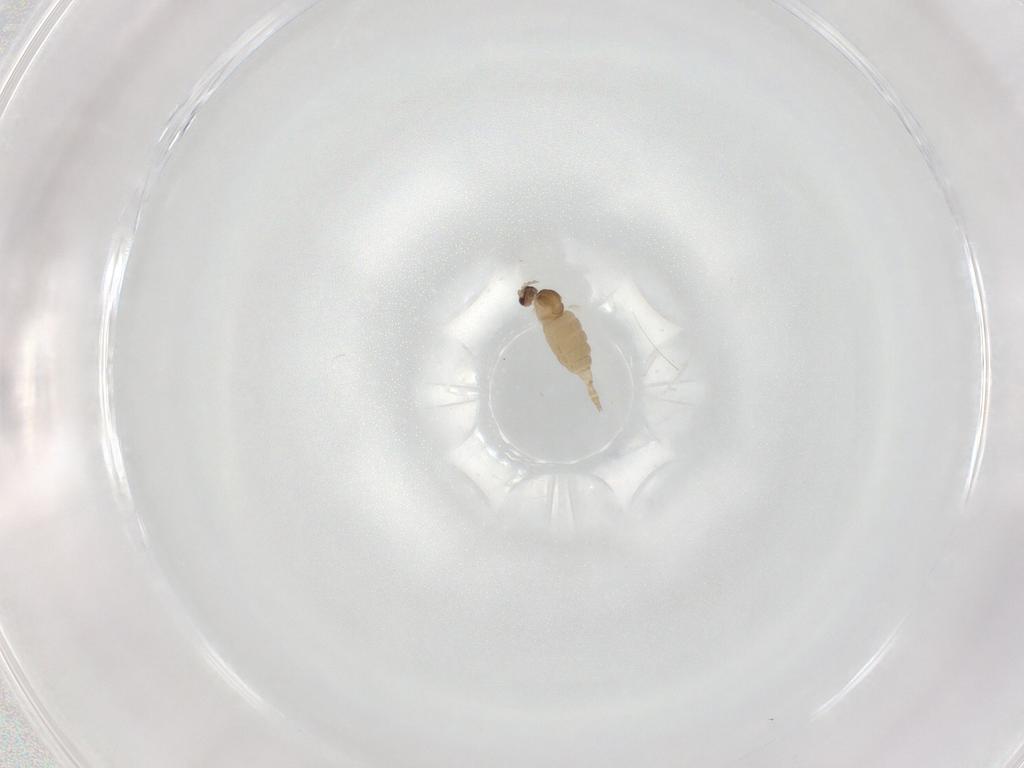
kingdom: Animalia
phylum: Arthropoda
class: Insecta
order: Diptera
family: Cecidomyiidae
